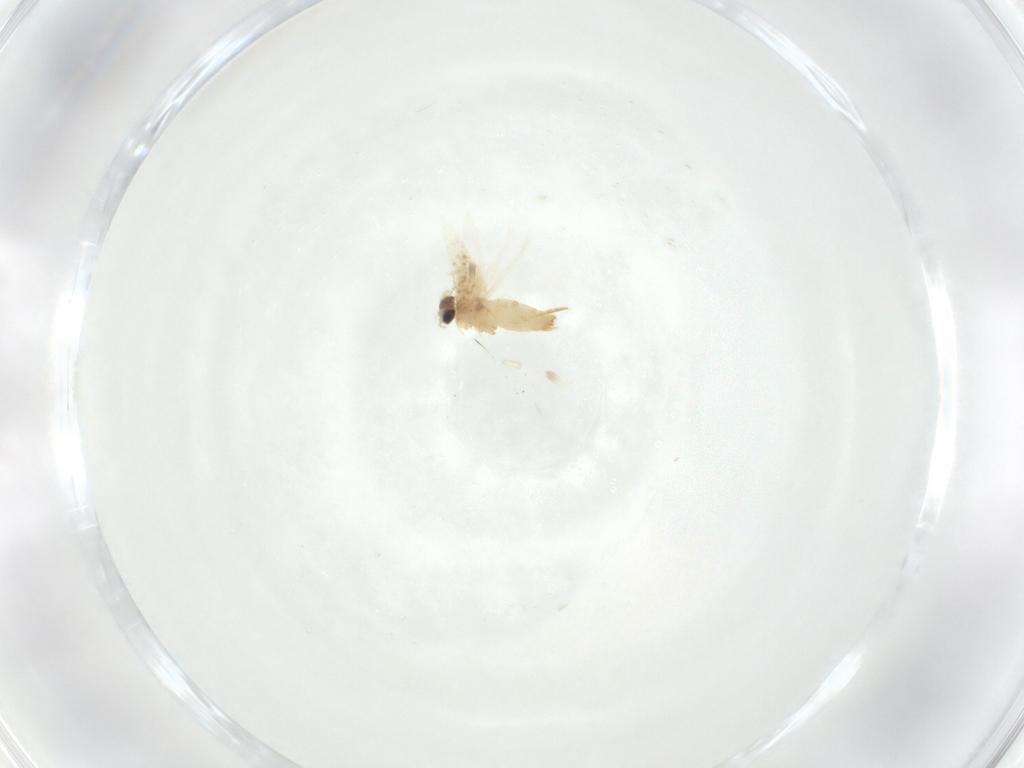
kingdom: Animalia
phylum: Arthropoda
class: Insecta
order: Lepidoptera
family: Crambidae
